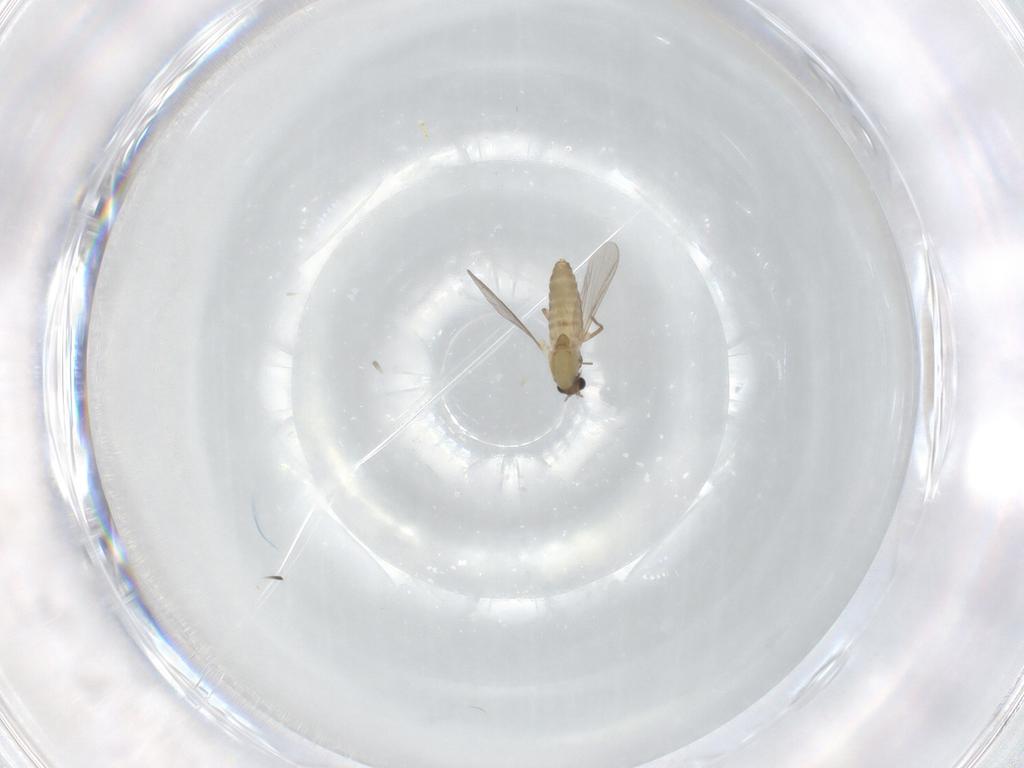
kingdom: Animalia
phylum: Arthropoda
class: Insecta
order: Diptera
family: Chironomidae
